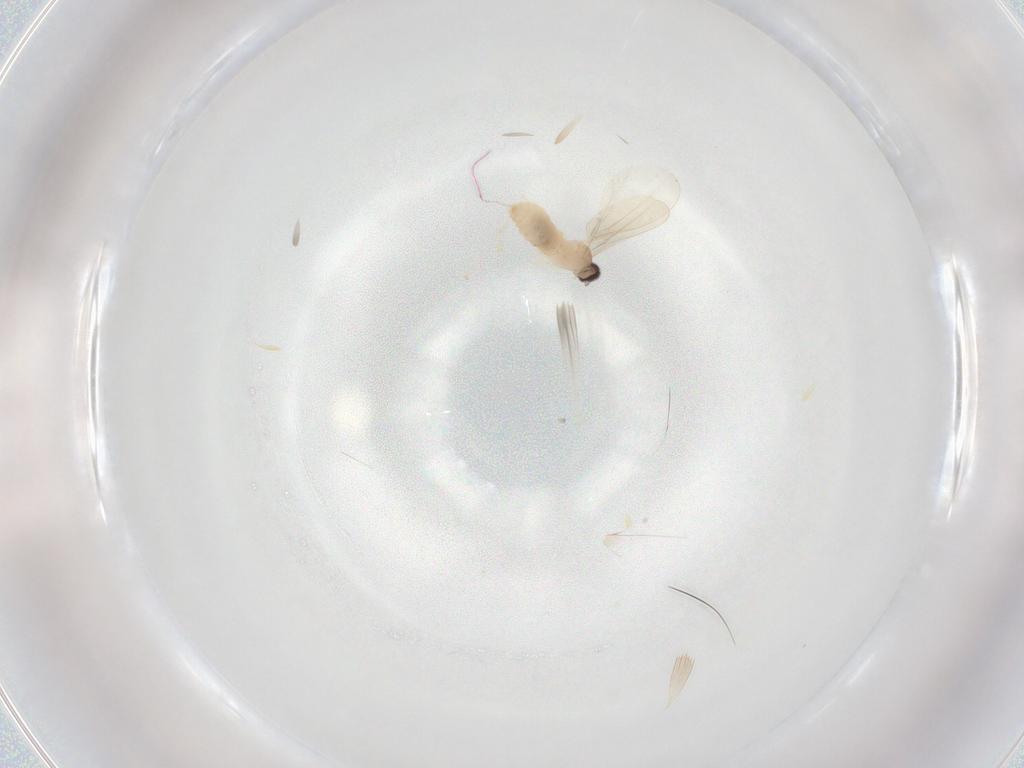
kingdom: Animalia
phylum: Arthropoda
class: Insecta
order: Diptera
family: Cecidomyiidae
